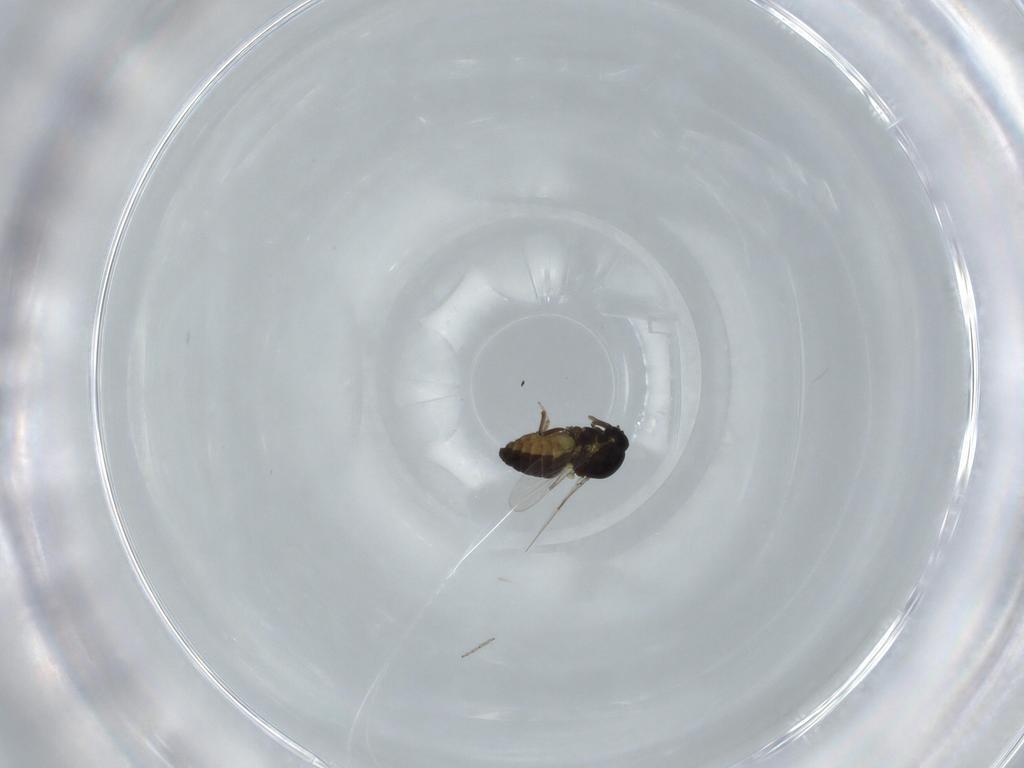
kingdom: Animalia
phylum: Arthropoda
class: Insecta
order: Diptera
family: Ceratopogonidae
